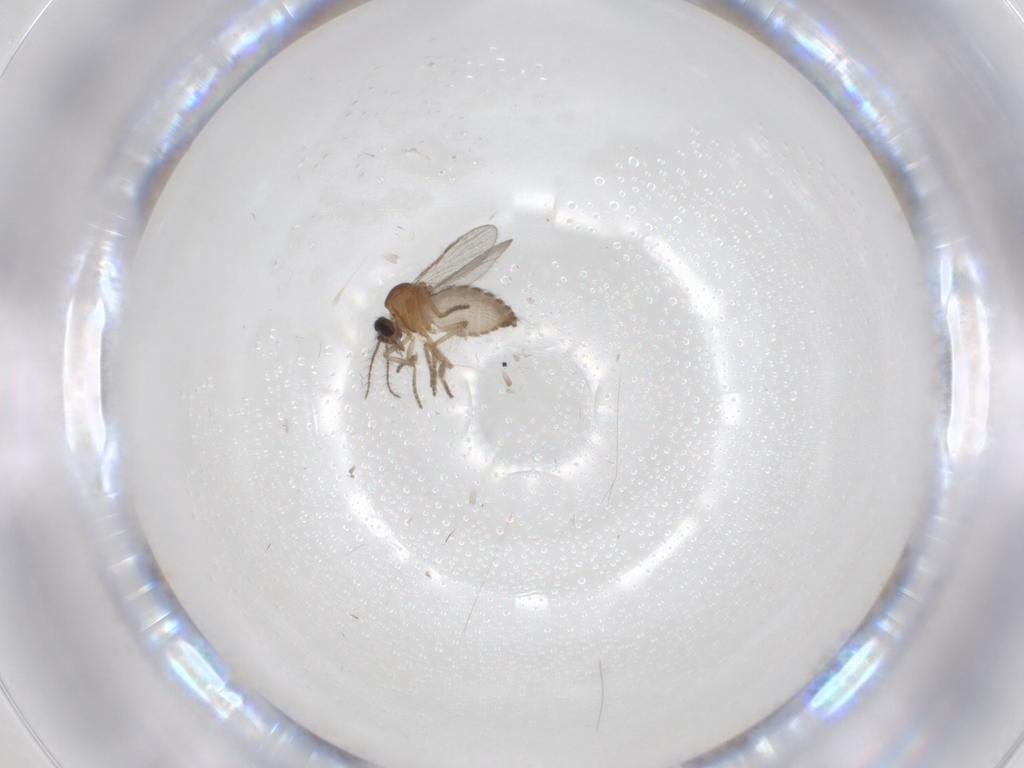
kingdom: Animalia
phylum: Arthropoda
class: Insecta
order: Diptera
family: Ceratopogonidae
